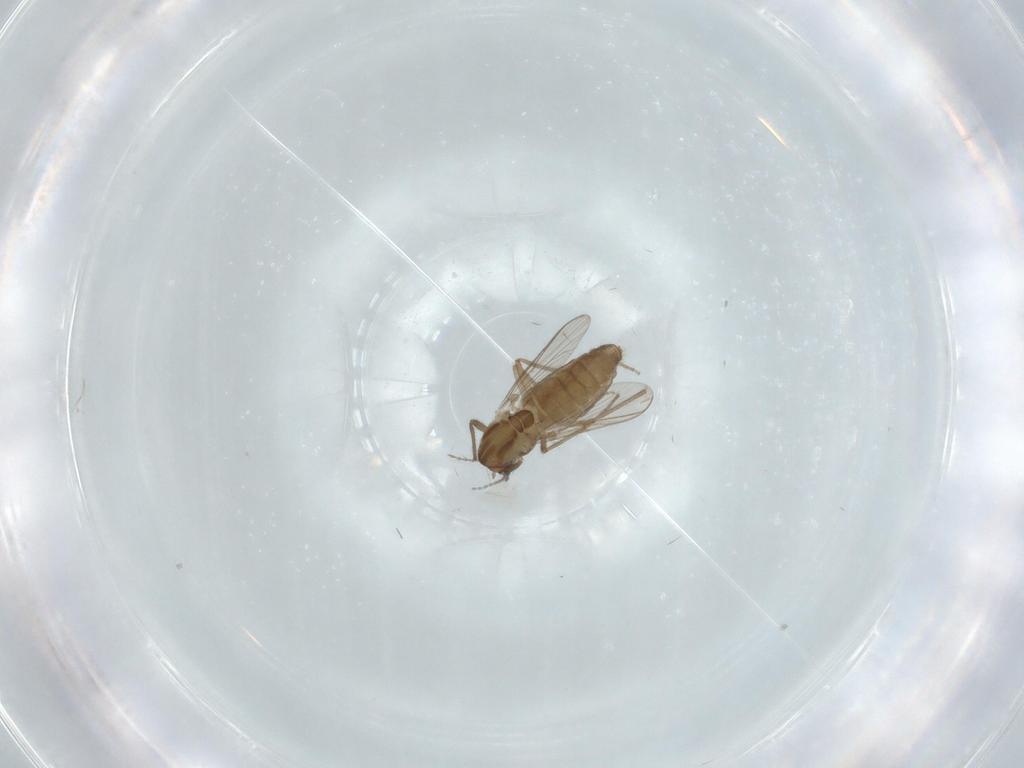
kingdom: Animalia
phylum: Arthropoda
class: Insecta
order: Diptera
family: Chironomidae
